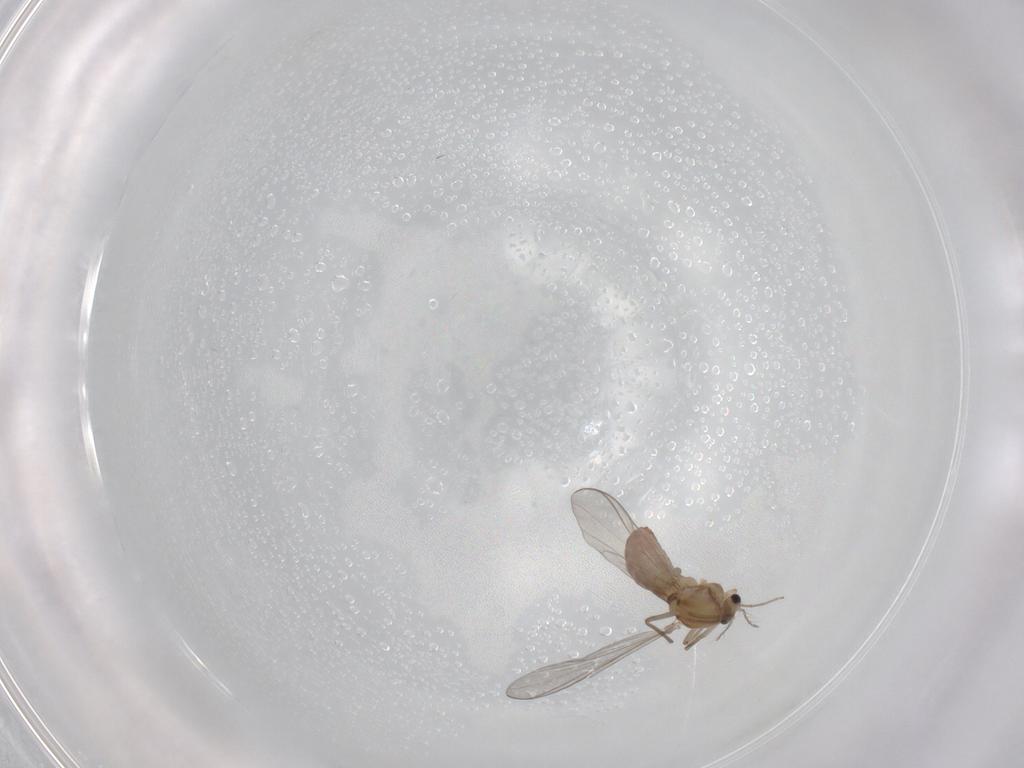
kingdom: Animalia
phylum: Arthropoda
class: Insecta
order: Diptera
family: Chironomidae
